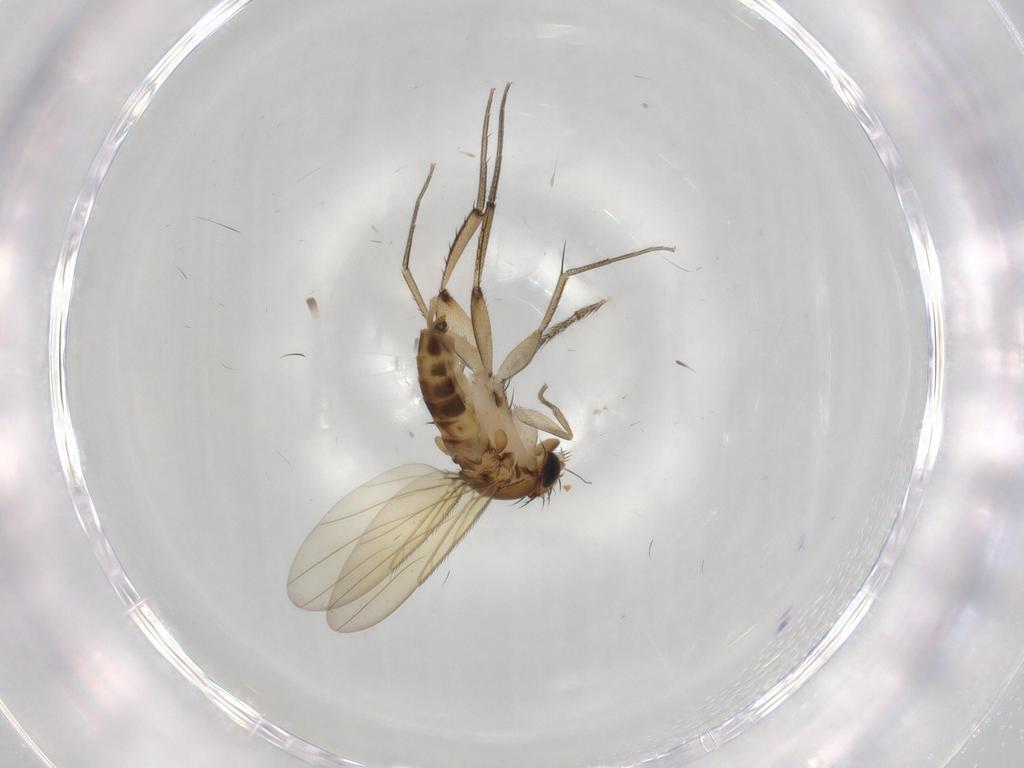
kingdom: Animalia
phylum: Arthropoda
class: Insecta
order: Diptera
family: Phoridae
